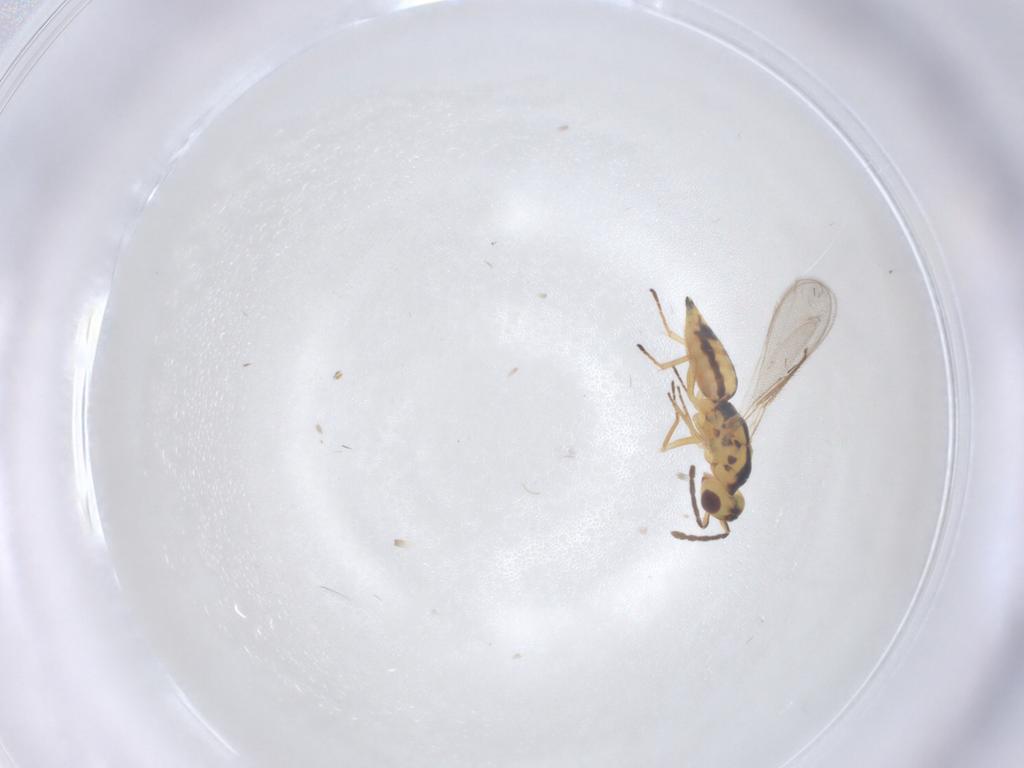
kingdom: Animalia
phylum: Arthropoda
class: Insecta
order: Hymenoptera
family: Eulophidae
